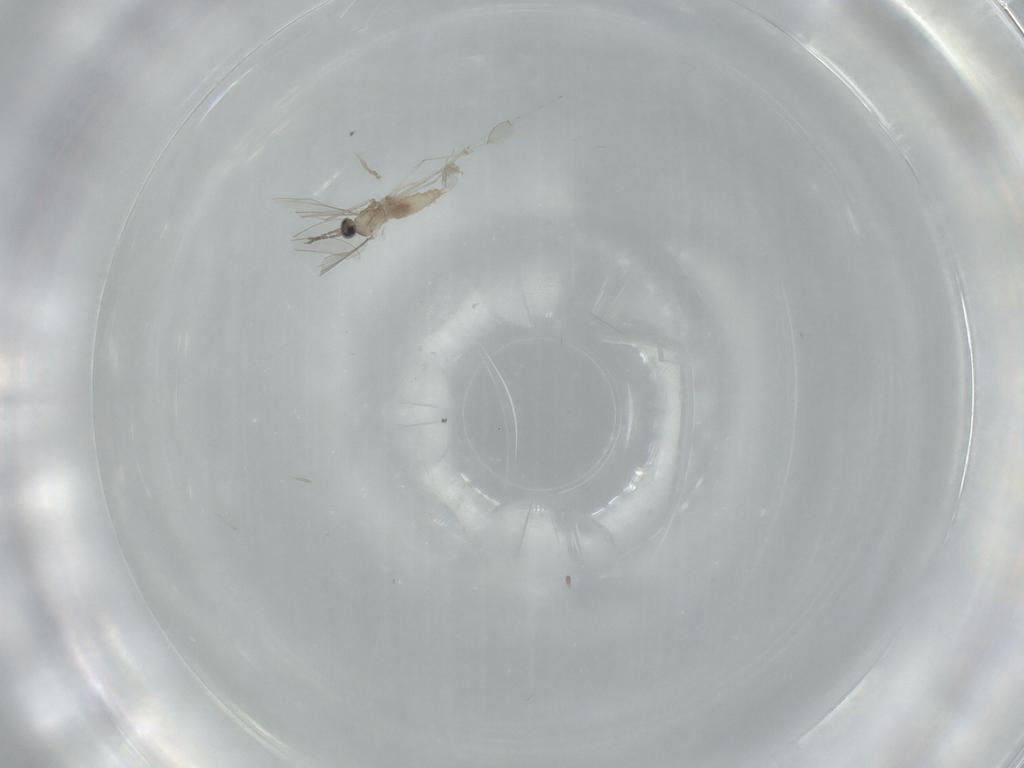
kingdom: Animalia
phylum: Arthropoda
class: Insecta
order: Diptera
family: Cecidomyiidae
